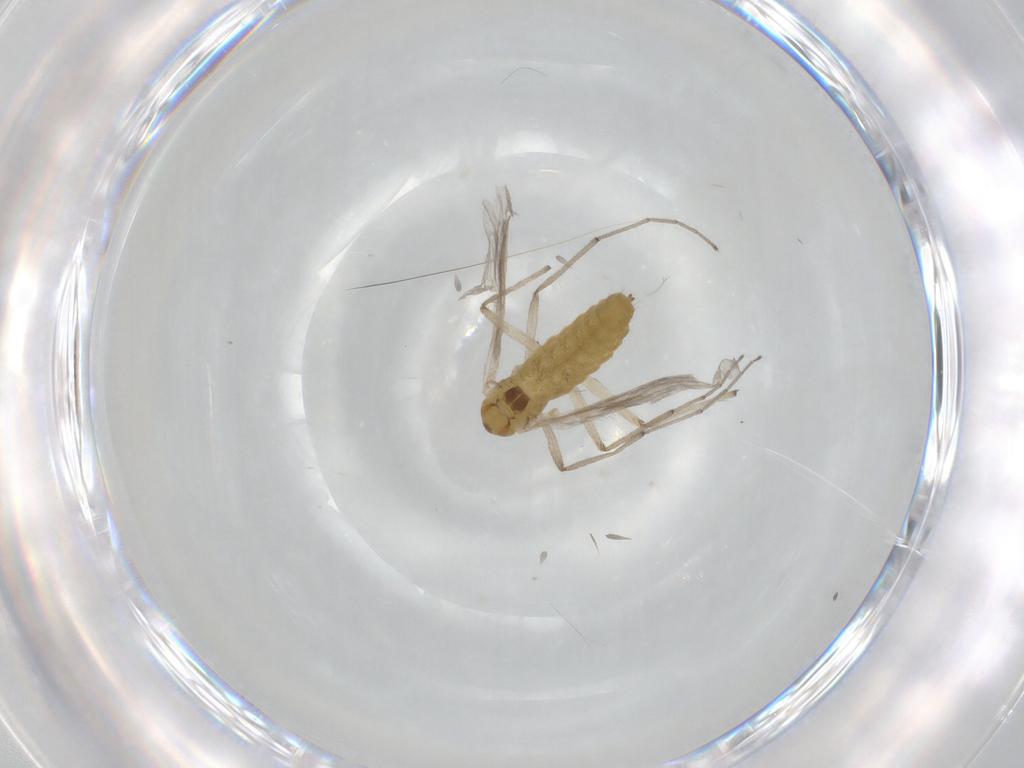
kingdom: Animalia
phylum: Arthropoda
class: Insecta
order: Diptera
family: Chironomidae
